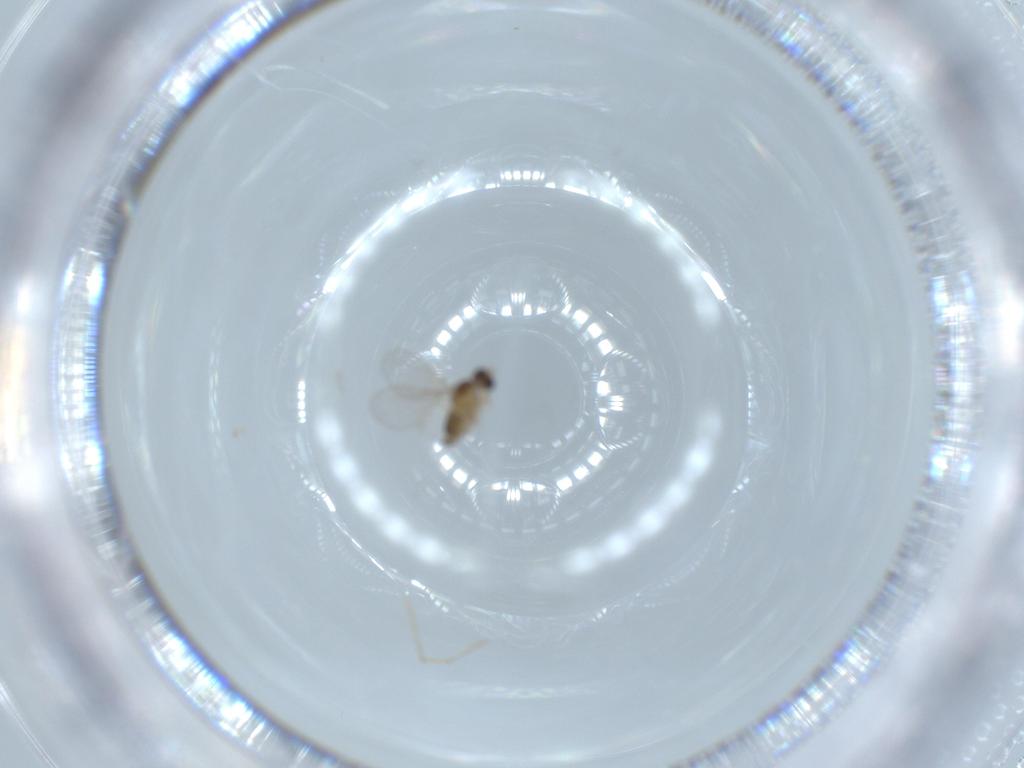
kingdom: Animalia
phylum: Arthropoda
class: Insecta
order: Diptera
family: Cecidomyiidae
